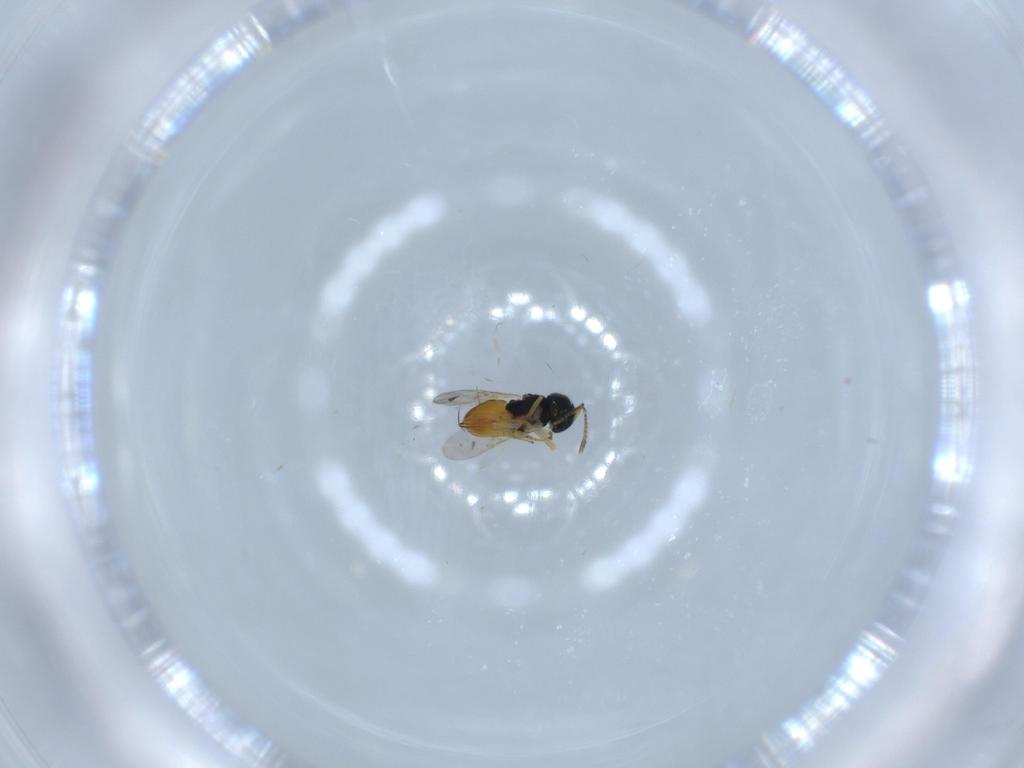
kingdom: Animalia
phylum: Arthropoda
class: Insecta
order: Hymenoptera
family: Encyrtidae
